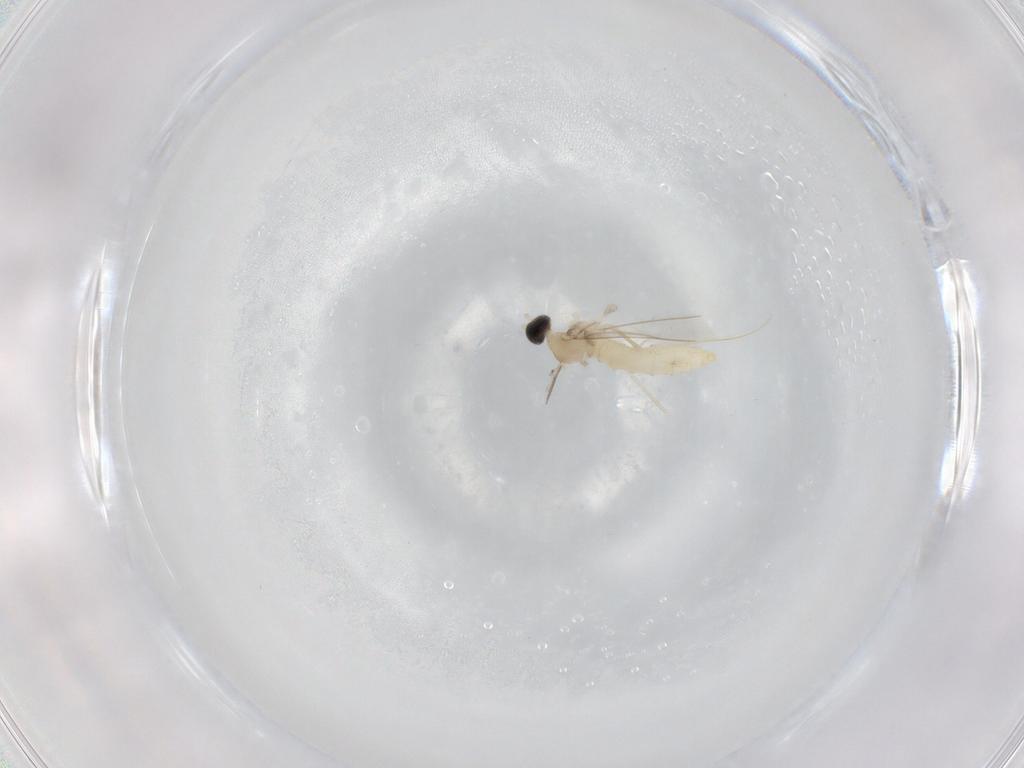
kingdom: Animalia
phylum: Arthropoda
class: Insecta
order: Diptera
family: Cecidomyiidae
